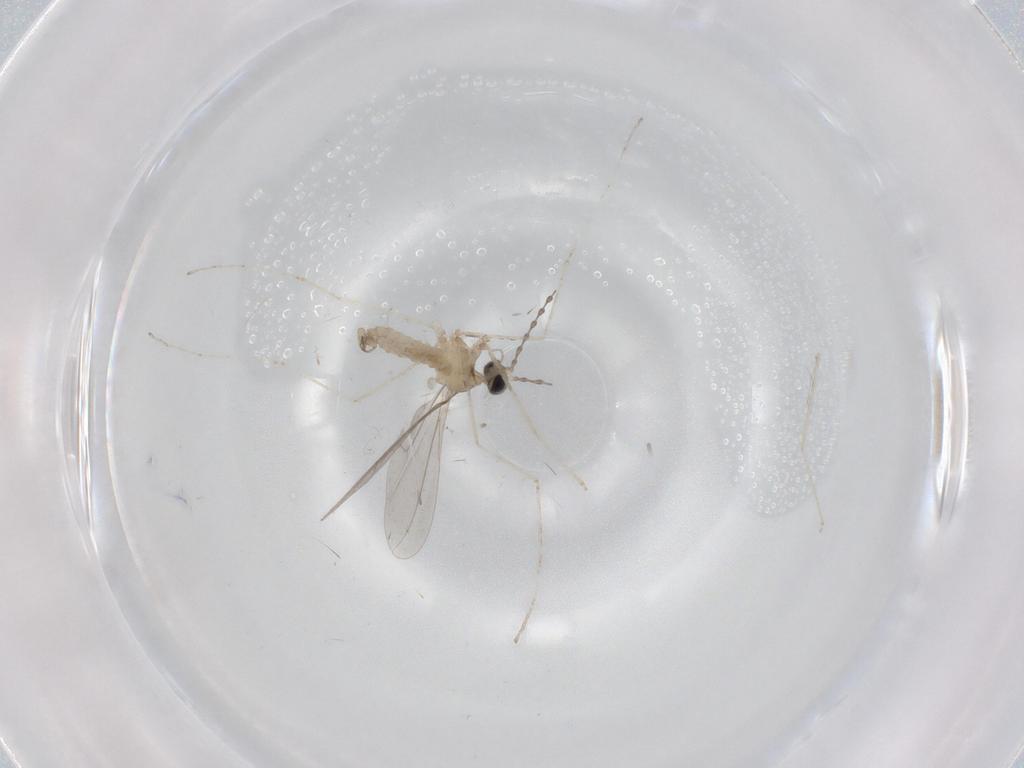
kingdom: Animalia
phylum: Arthropoda
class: Insecta
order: Diptera
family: Cecidomyiidae
